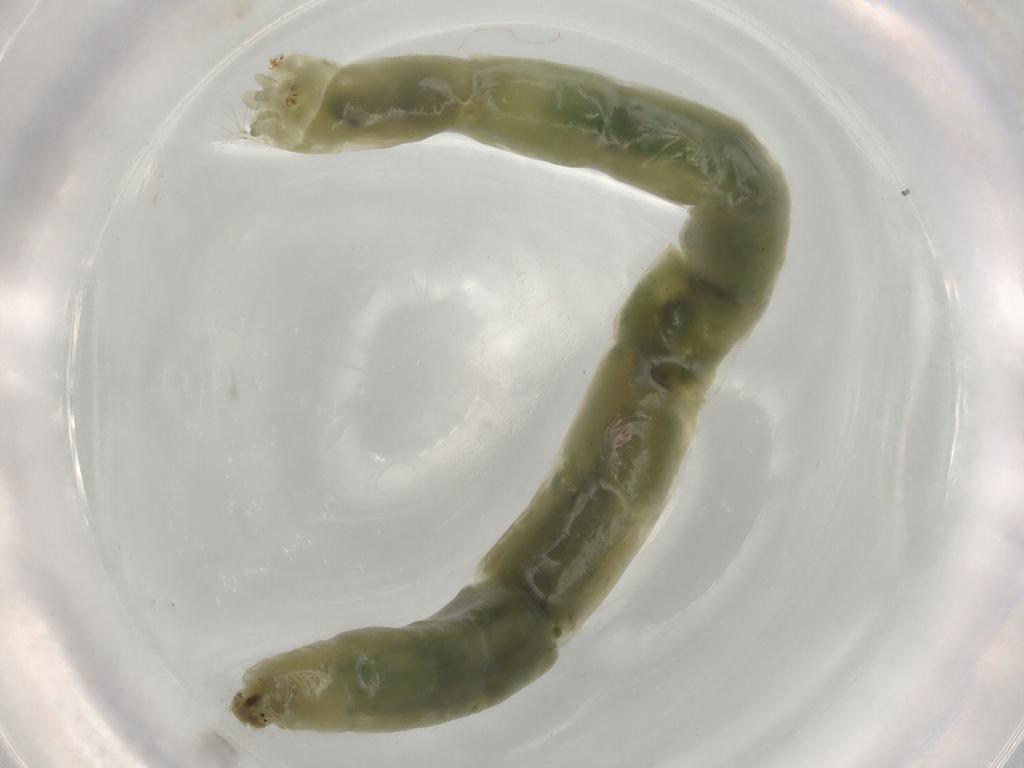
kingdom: Animalia
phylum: Arthropoda
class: Insecta
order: Diptera
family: Chironomidae
